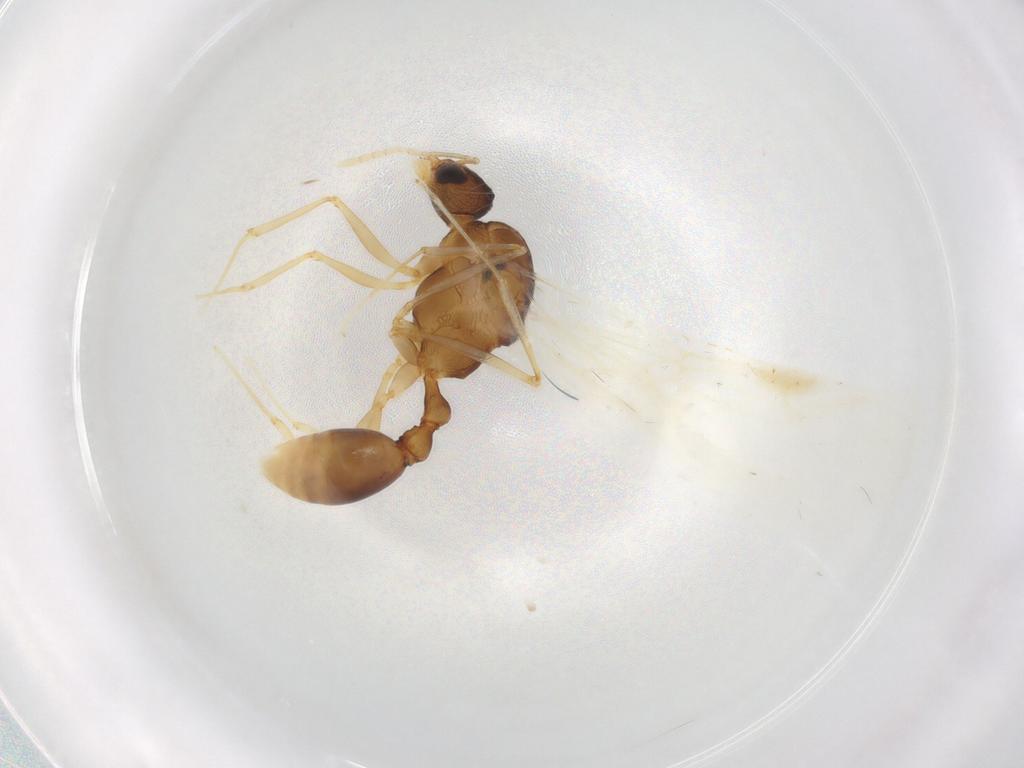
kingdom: Animalia
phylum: Arthropoda
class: Insecta
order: Hymenoptera
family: Formicidae
